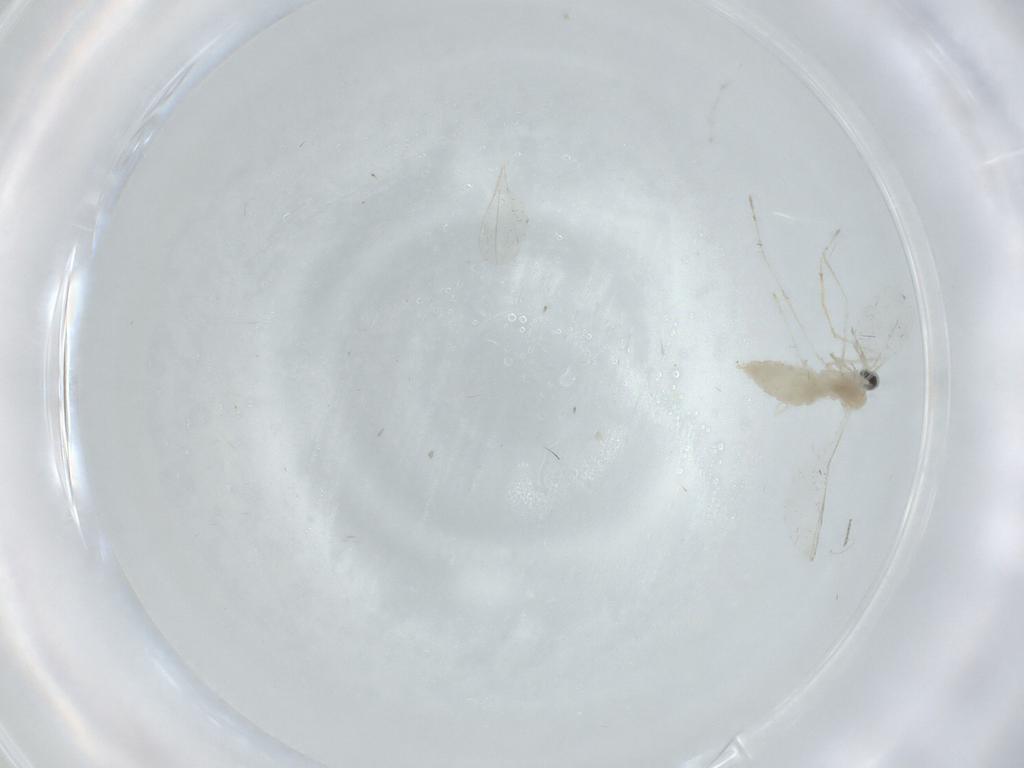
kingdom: Animalia
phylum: Arthropoda
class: Insecta
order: Diptera
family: Cecidomyiidae
